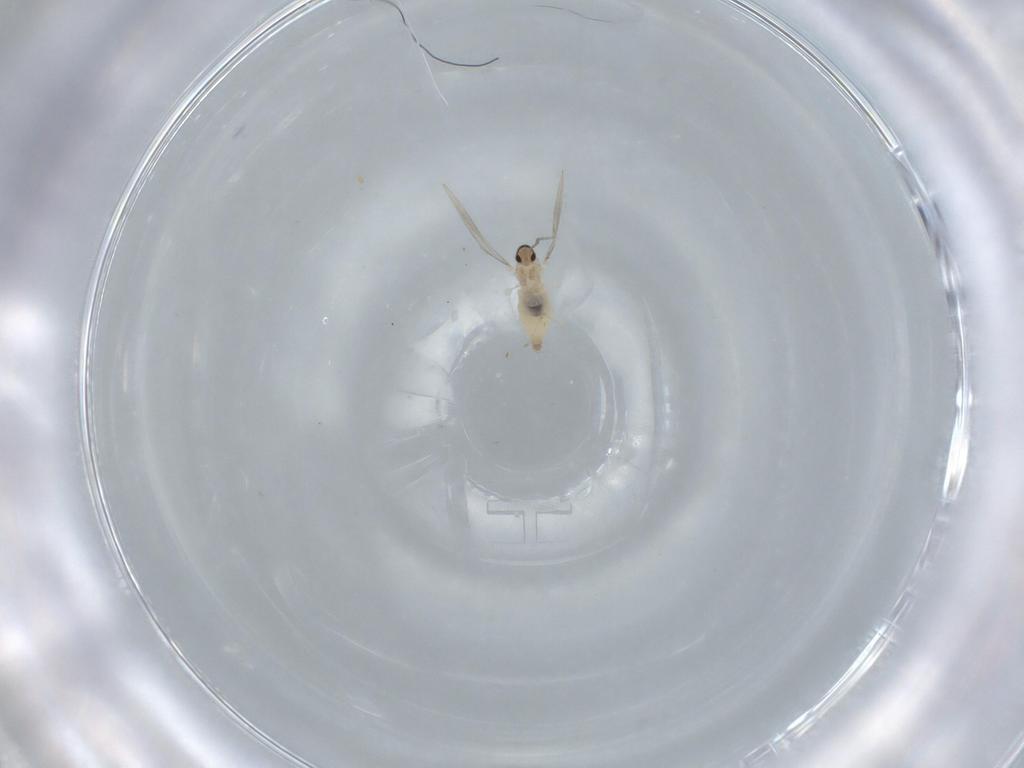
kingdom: Animalia
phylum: Arthropoda
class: Insecta
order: Diptera
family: Cecidomyiidae
